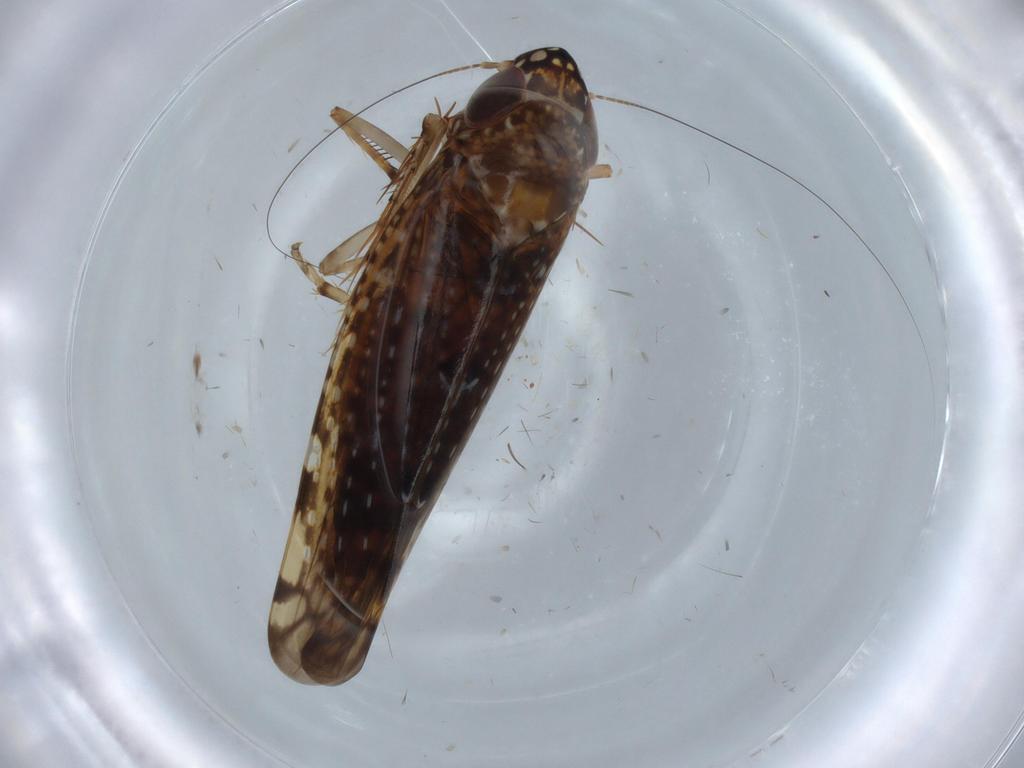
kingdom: Animalia
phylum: Arthropoda
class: Insecta
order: Hemiptera
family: Cicadellidae
